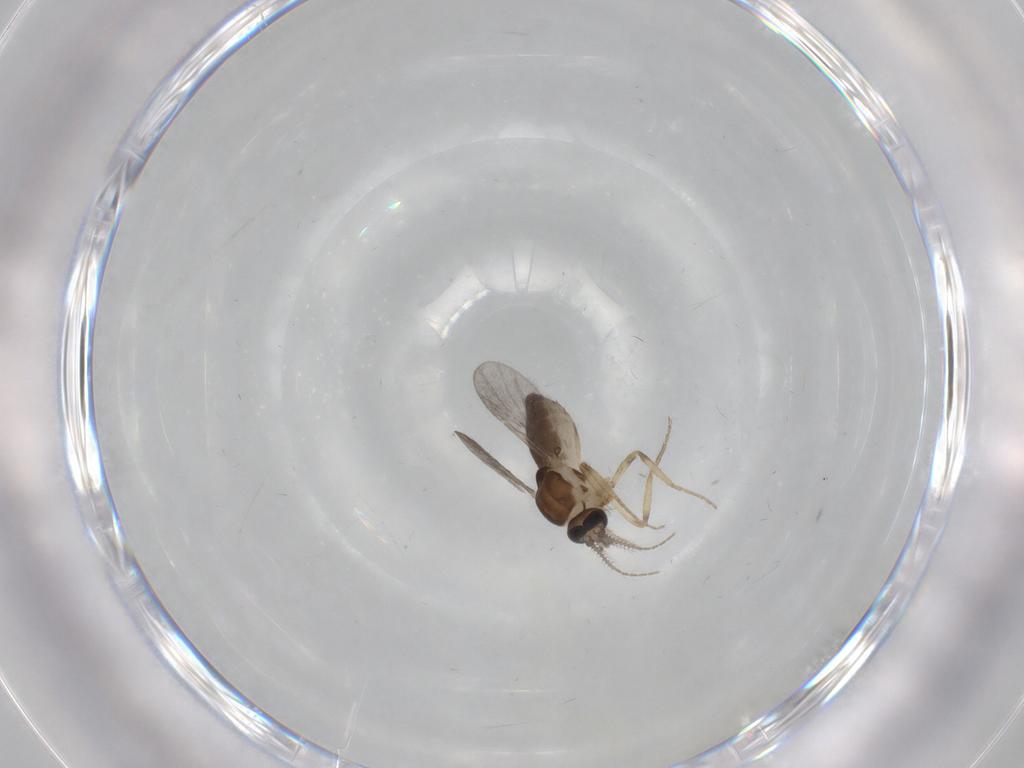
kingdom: Animalia
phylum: Arthropoda
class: Insecta
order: Diptera
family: Ceratopogonidae
